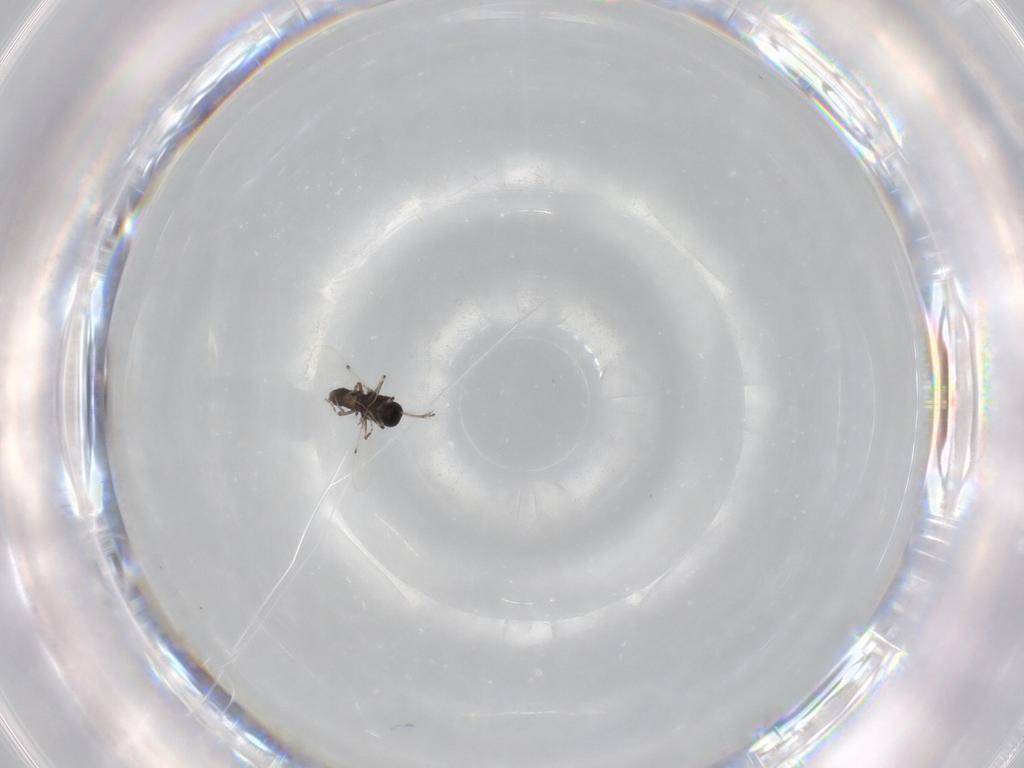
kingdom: Animalia
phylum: Arthropoda
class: Insecta
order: Diptera
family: Ceratopogonidae
